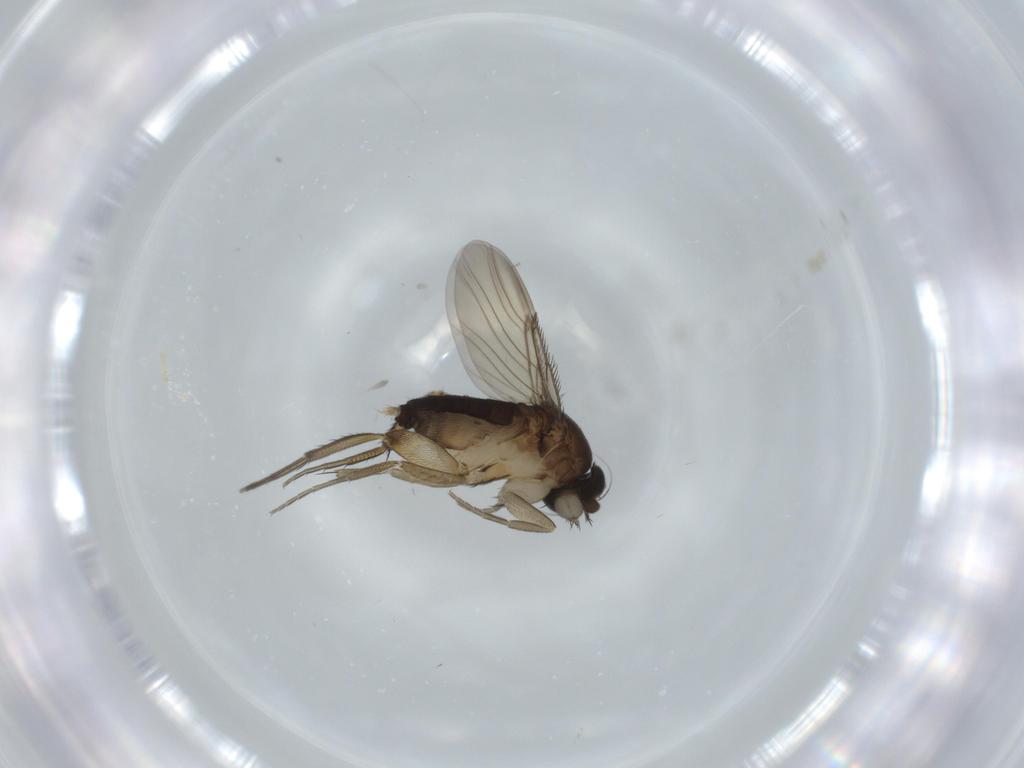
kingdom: Animalia
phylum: Arthropoda
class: Insecta
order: Diptera
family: Phoridae
